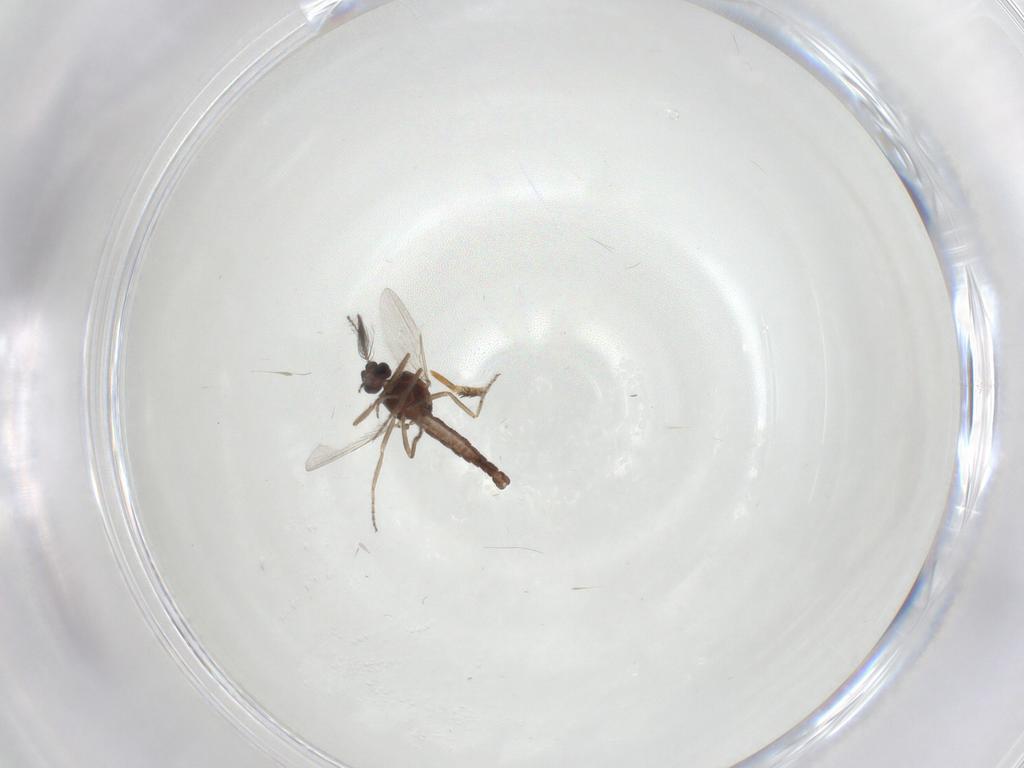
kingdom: Animalia
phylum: Arthropoda
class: Insecta
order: Diptera
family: Ceratopogonidae
